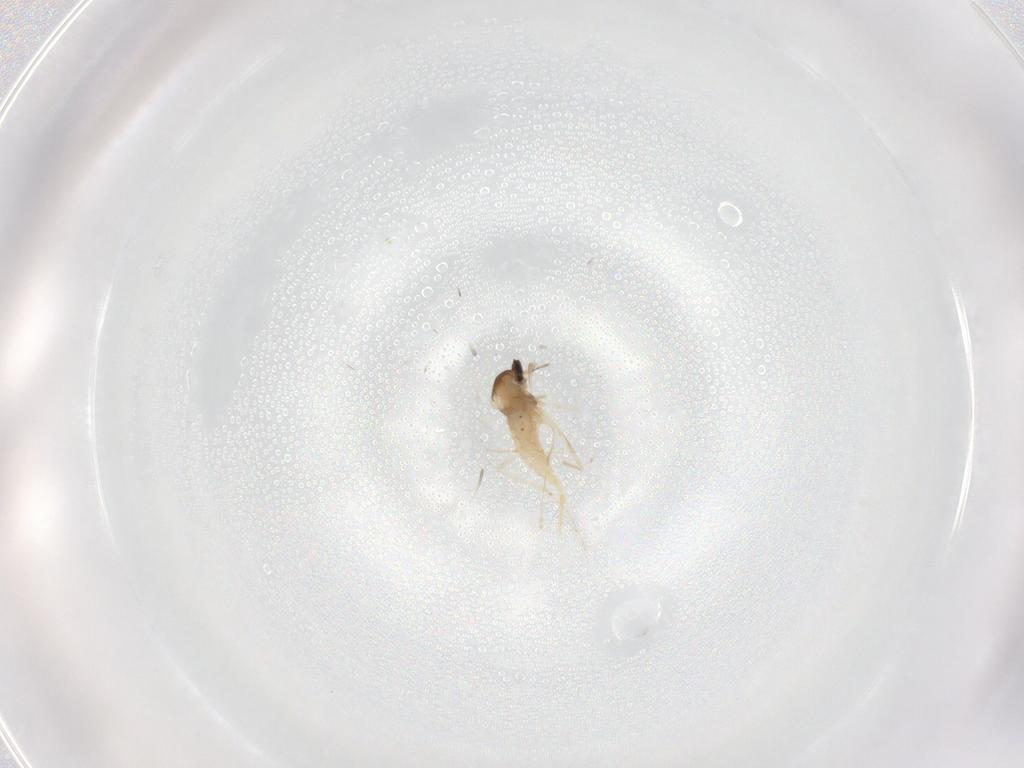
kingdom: Animalia
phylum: Arthropoda
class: Insecta
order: Diptera
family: Cecidomyiidae
